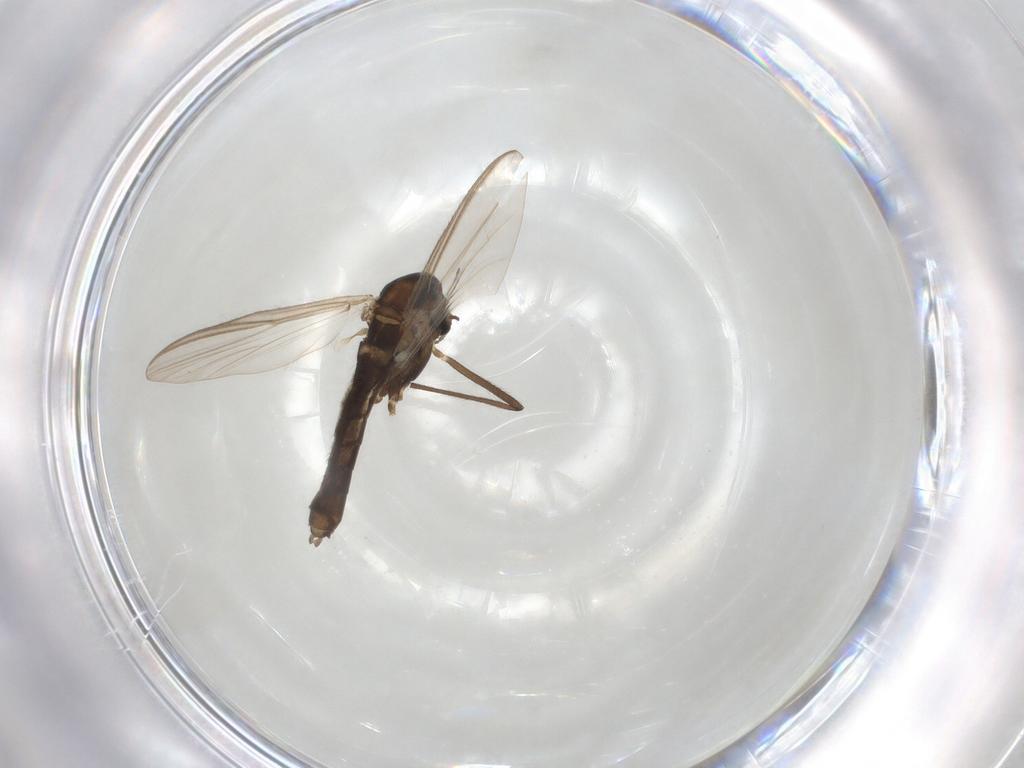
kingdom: Animalia
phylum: Arthropoda
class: Insecta
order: Diptera
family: Chironomidae
